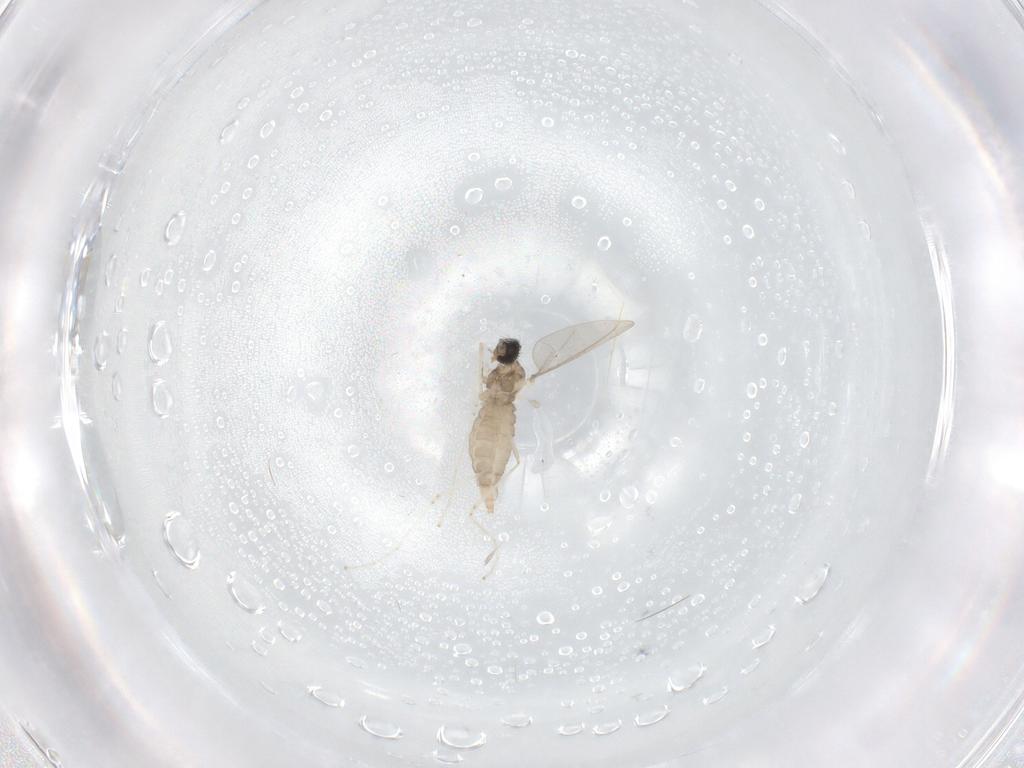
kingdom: Animalia
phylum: Arthropoda
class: Insecta
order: Diptera
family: Cecidomyiidae
